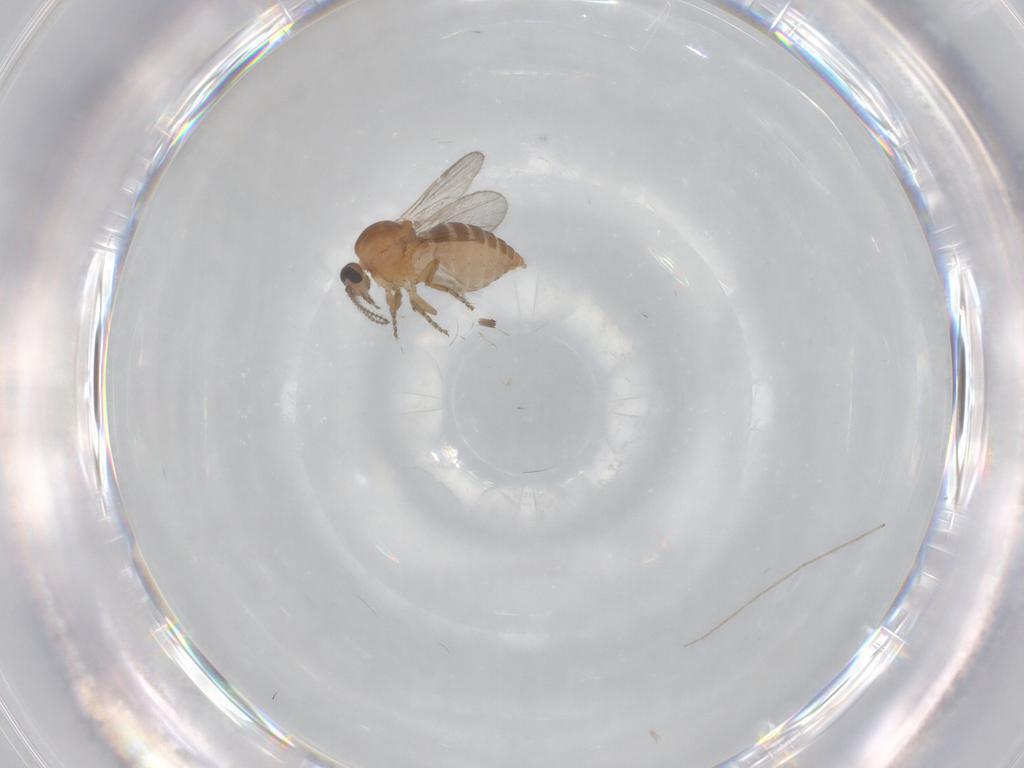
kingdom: Animalia
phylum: Arthropoda
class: Insecta
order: Diptera
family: Ceratopogonidae
